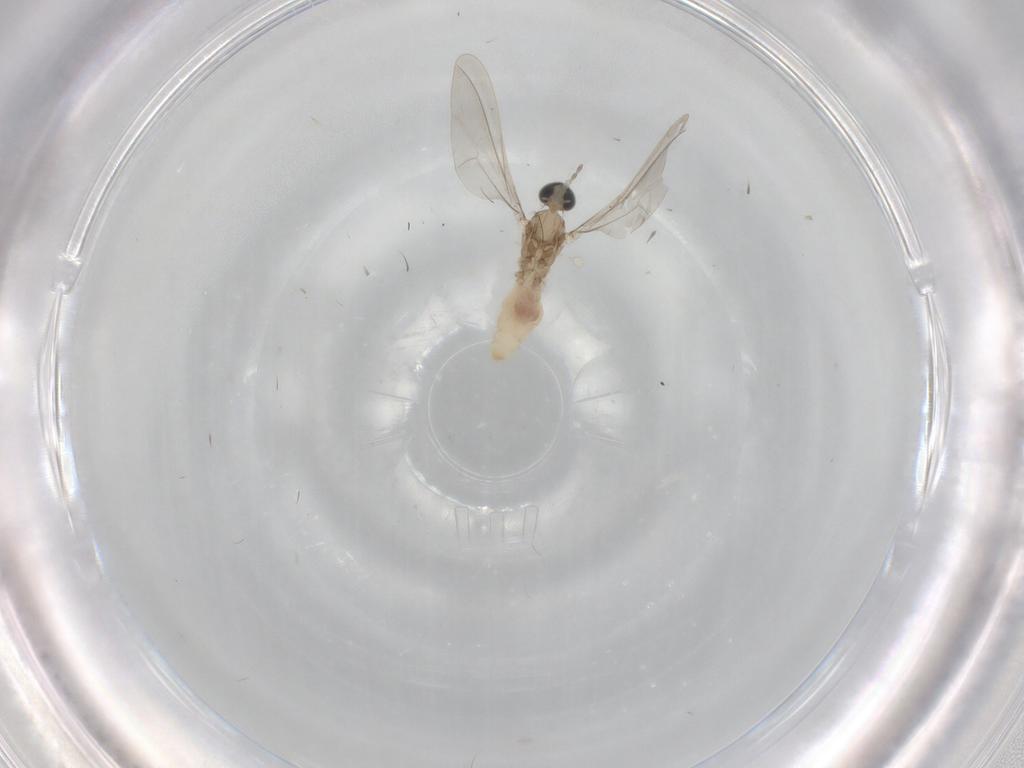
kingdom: Animalia
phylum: Arthropoda
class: Insecta
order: Diptera
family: Cecidomyiidae
